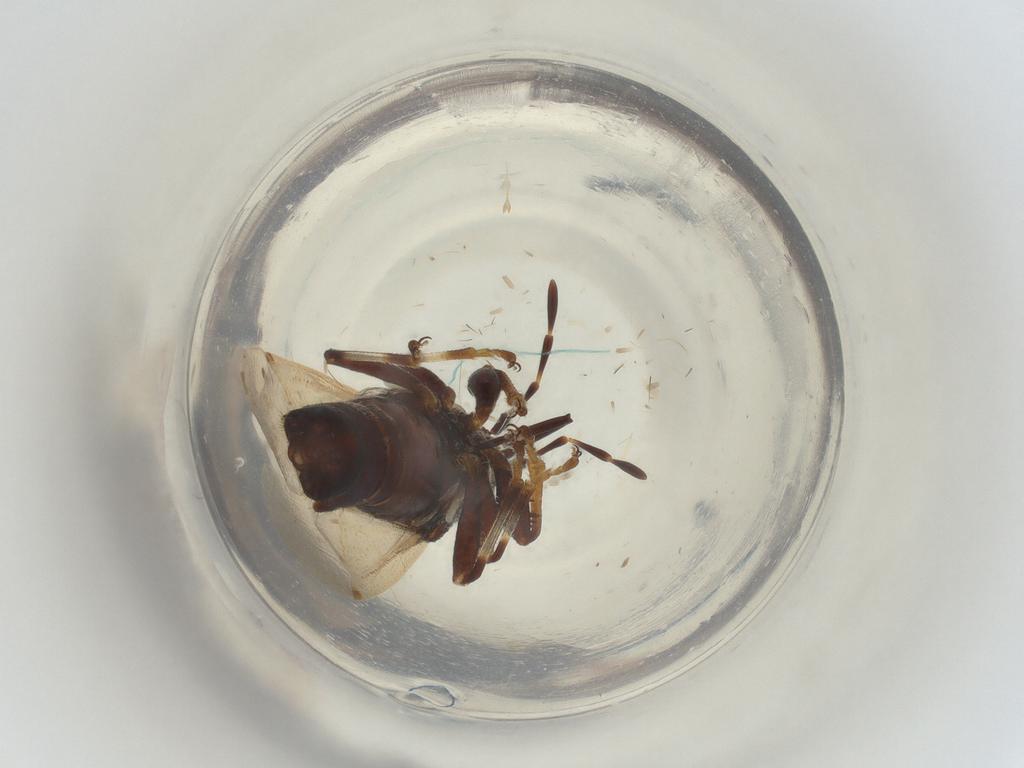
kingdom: Animalia
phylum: Arthropoda
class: Insecta
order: Hemiptera
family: Oxycarenidae
